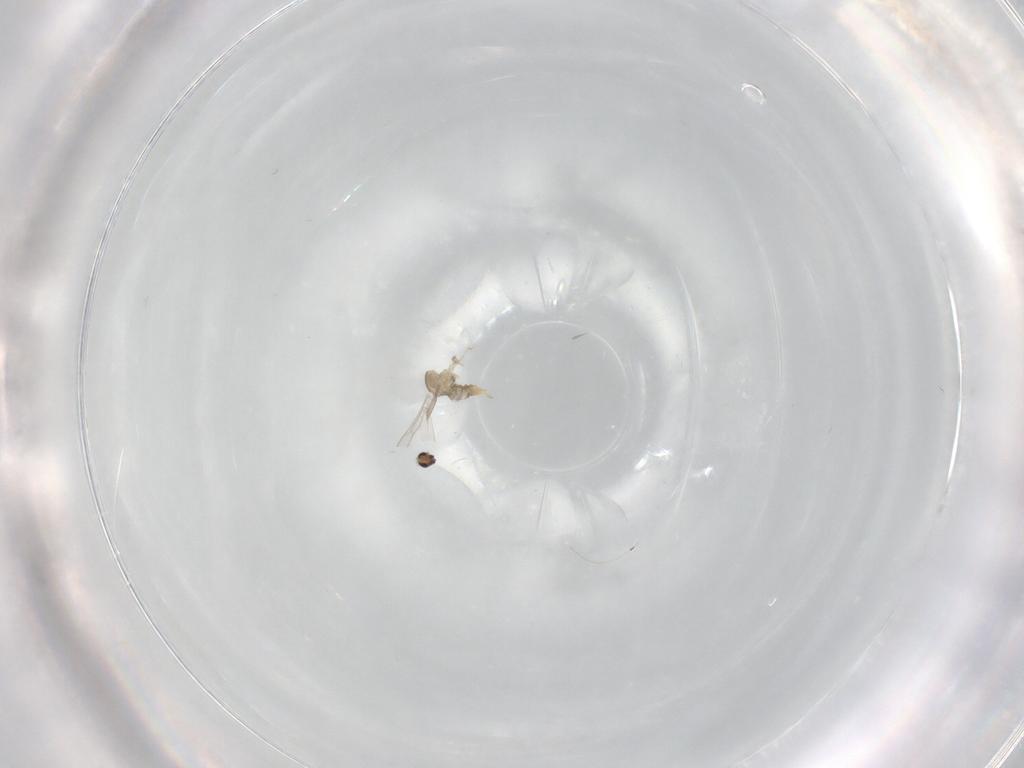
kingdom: Animalia
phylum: Arthropoda
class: Insecta
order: Diptera
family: Cecidomyiidae
